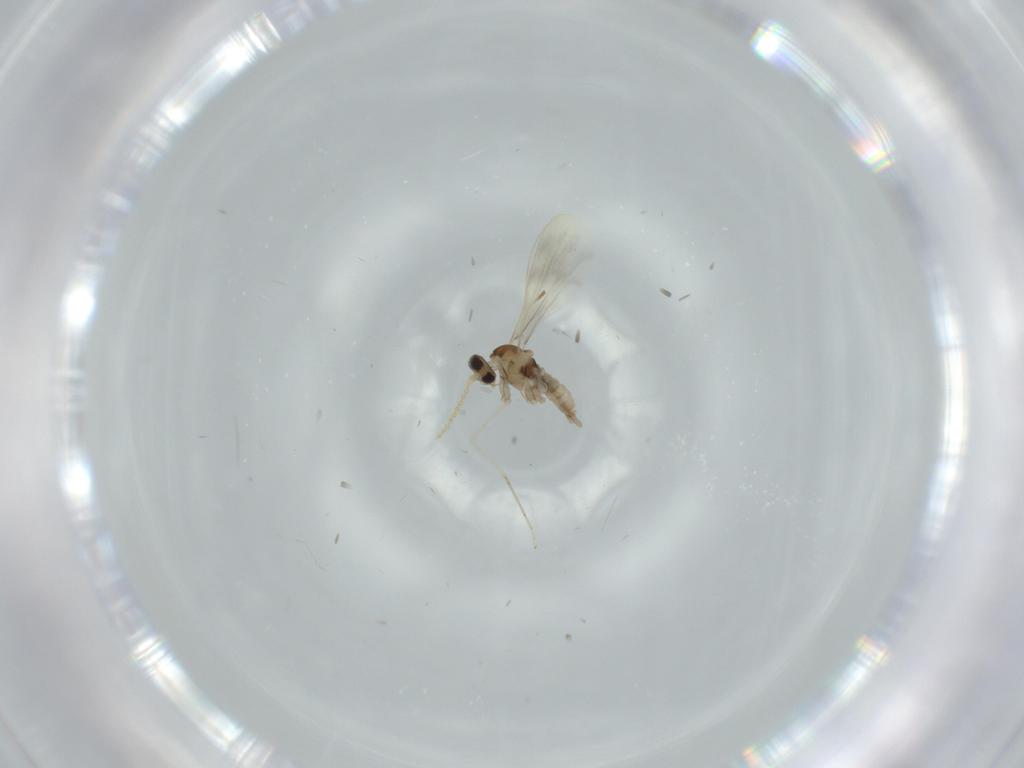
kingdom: Animalia
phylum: Arthropoda
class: Insecta
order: Diptera
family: Cecidomyiidae
